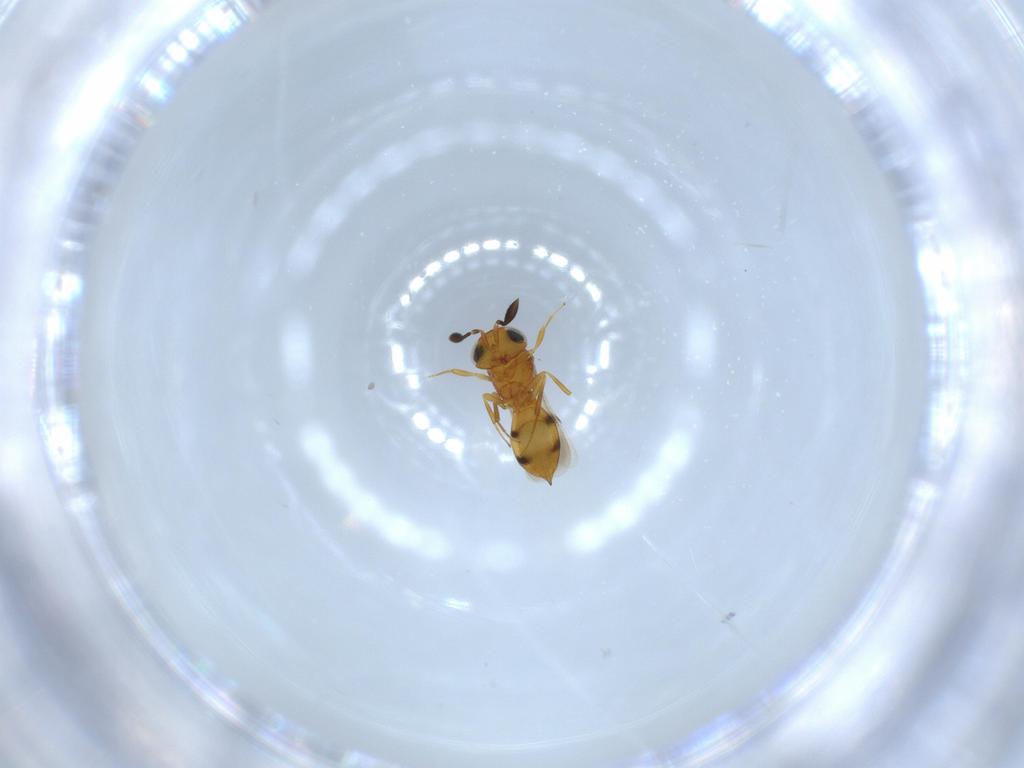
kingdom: Animalia
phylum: Arthropoda
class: Insecta
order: Hymenoptera
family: Scelionidae
